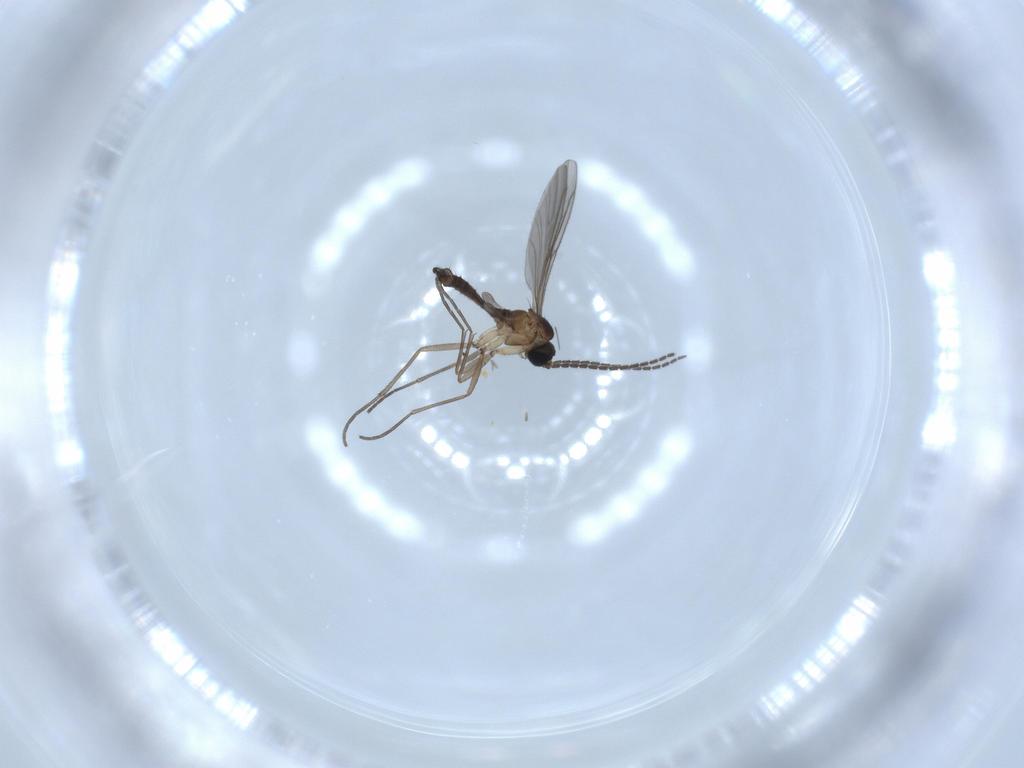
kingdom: Animalia
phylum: Arthropoda
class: Insecta
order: Diptera
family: Sciaridae
